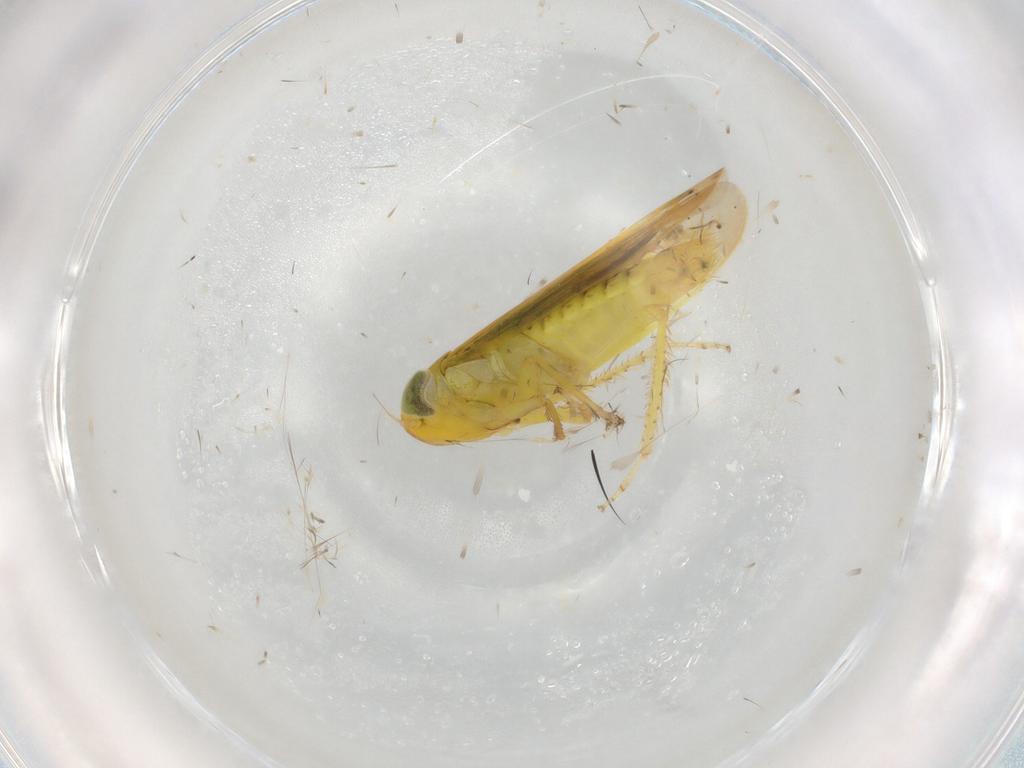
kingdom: Animalia
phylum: Arthropoda
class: Insecta
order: Hemiptera
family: Cicadellidae
